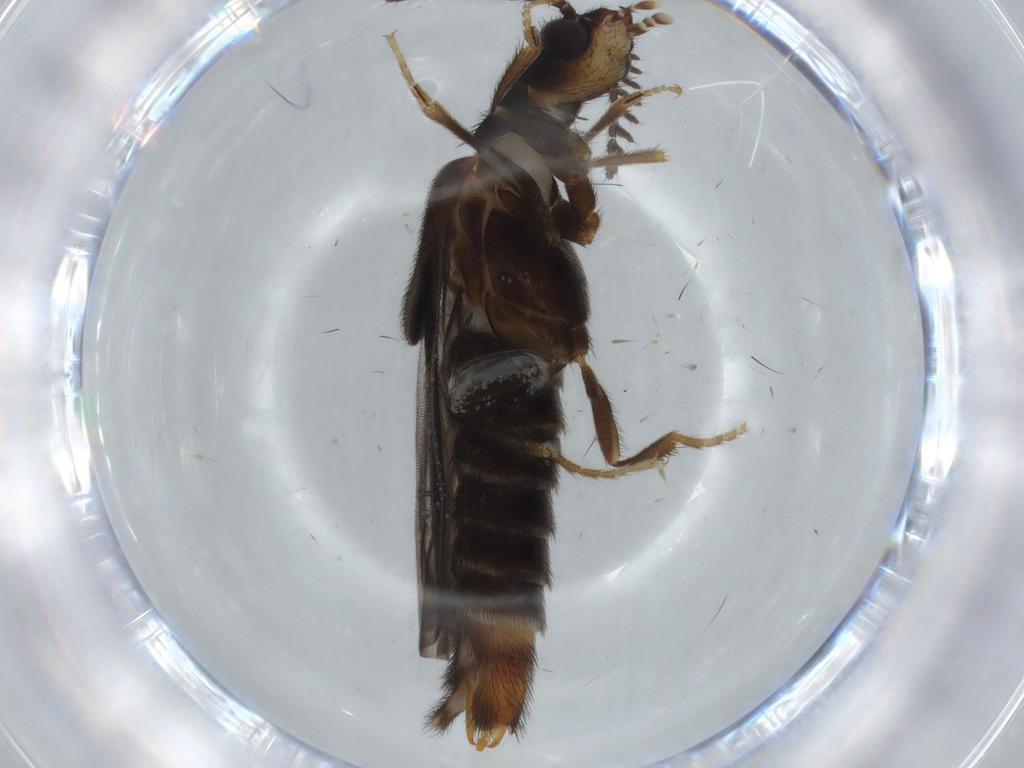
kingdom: Animalia
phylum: Arthropoda
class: Insecta
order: Coleoptera
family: Phengodidae
